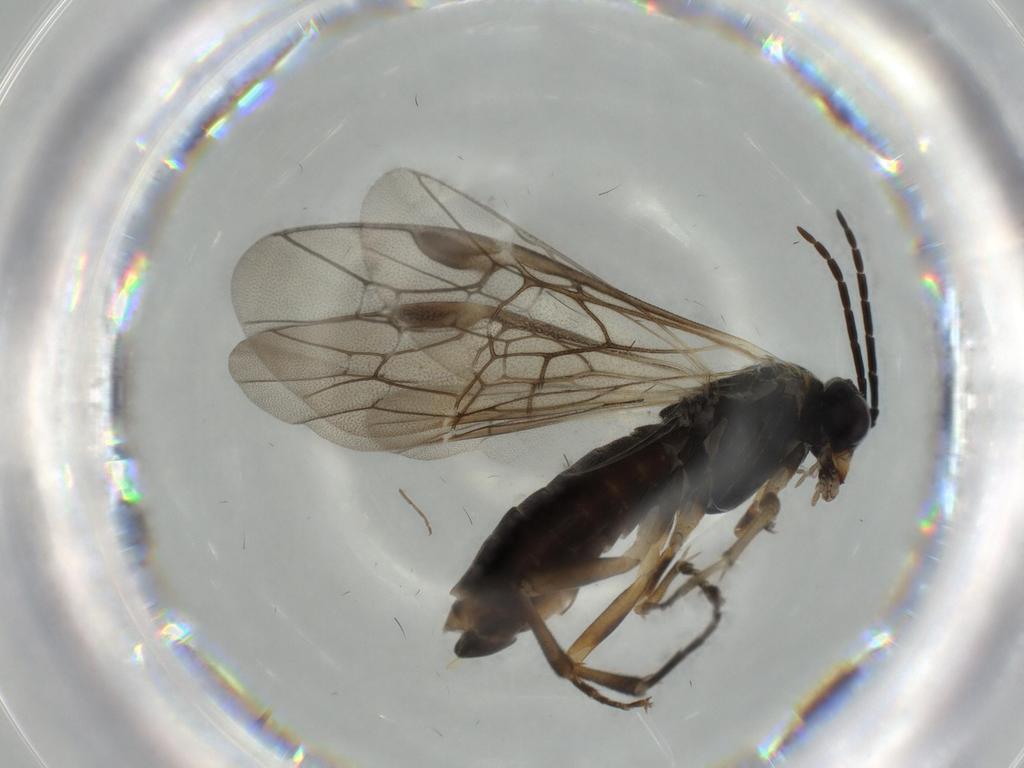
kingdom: Animalia
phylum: Arthropoda
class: Insecta
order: Hymenoptera
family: Diapriidae
